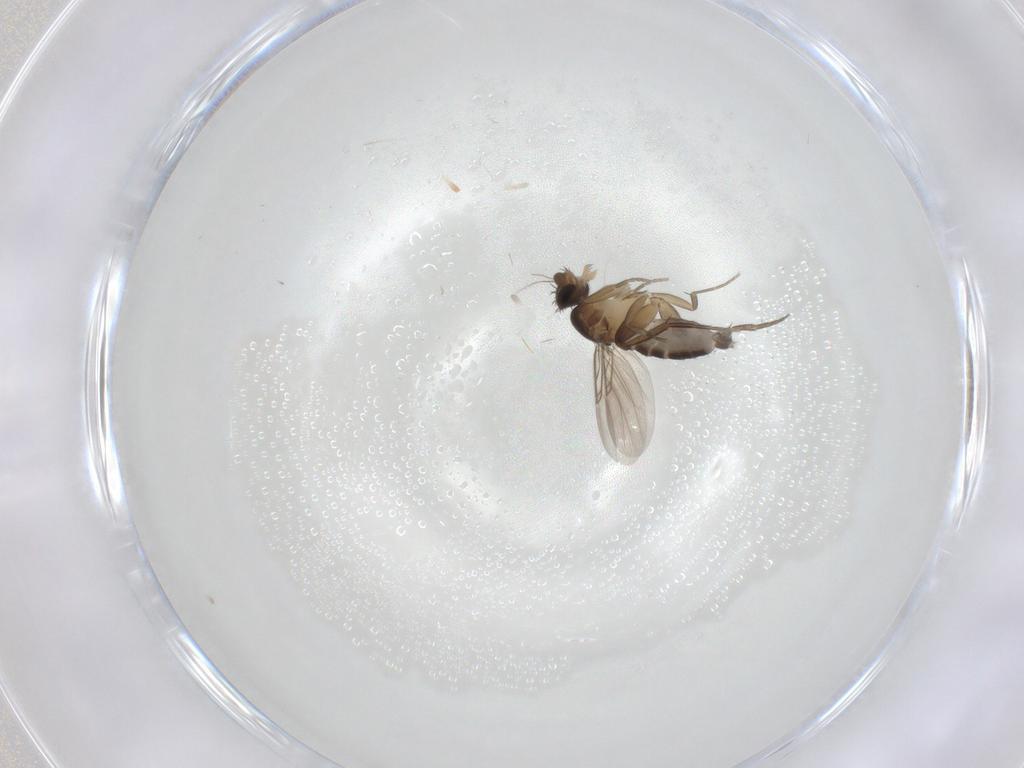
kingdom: Animalia
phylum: Arthropoda
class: Insecta
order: Diptera
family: Phoridae
